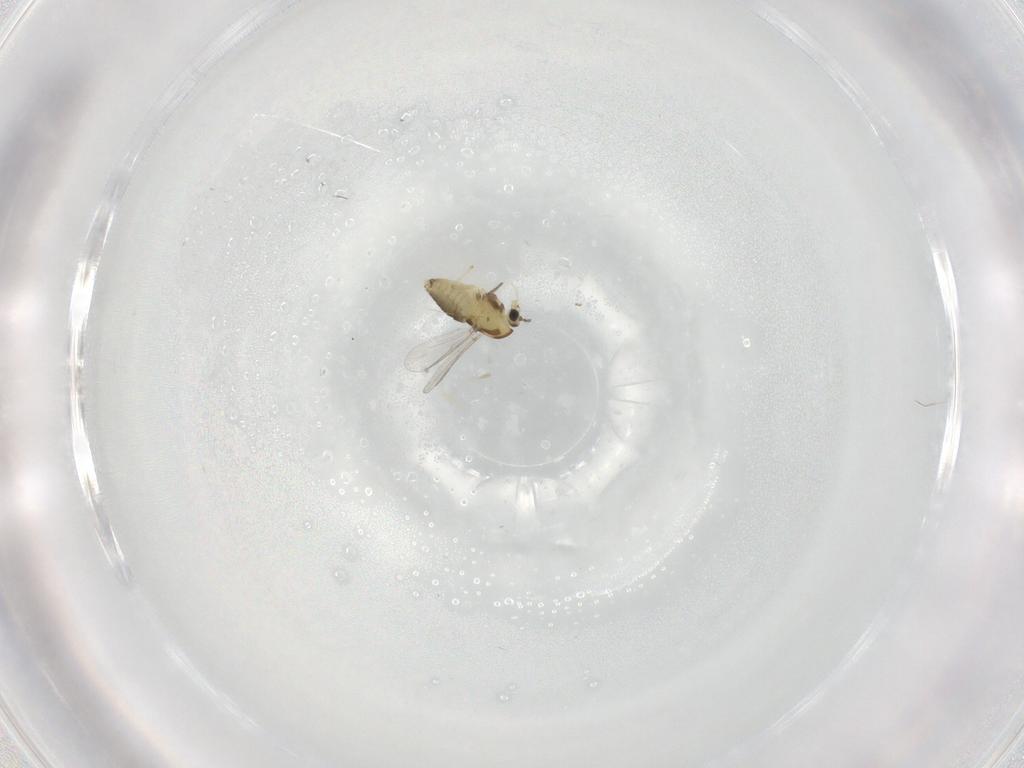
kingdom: Animalia
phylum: Arthropoda
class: Insecta
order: Diptera
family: Chironomidae
